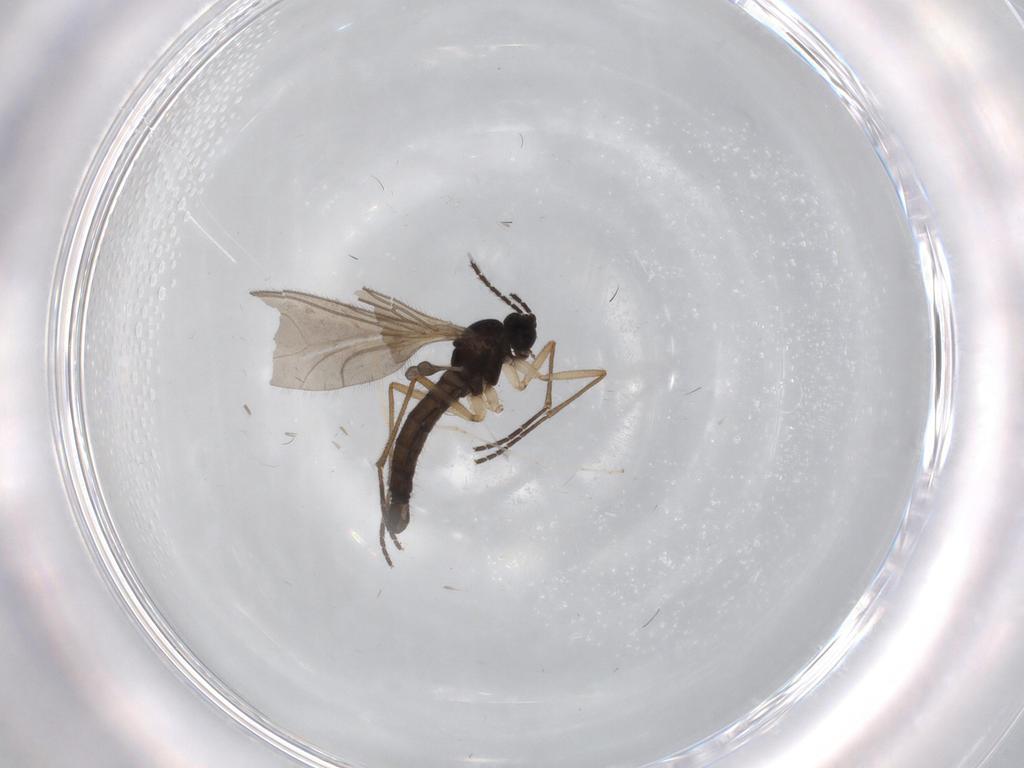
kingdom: Animalia
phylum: Arthropoda
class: Insecta
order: Diptera
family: Sciaridae
